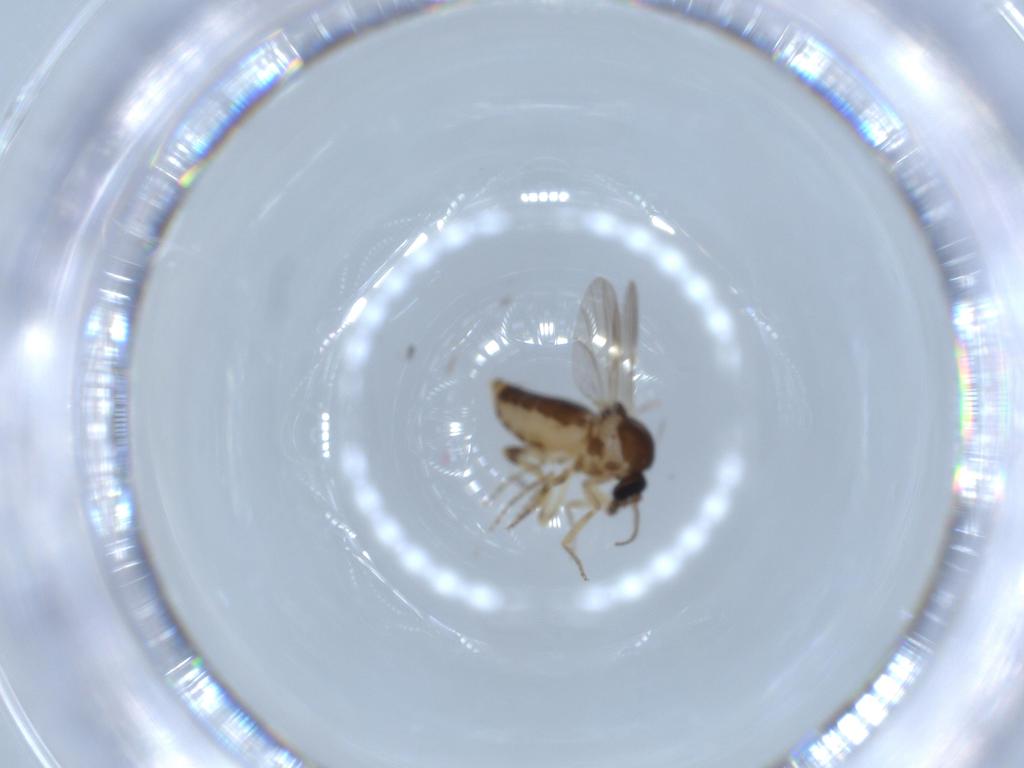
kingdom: Animalia
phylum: Arthropoda
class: Insecta
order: Diptera
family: Ceratopogonidae
